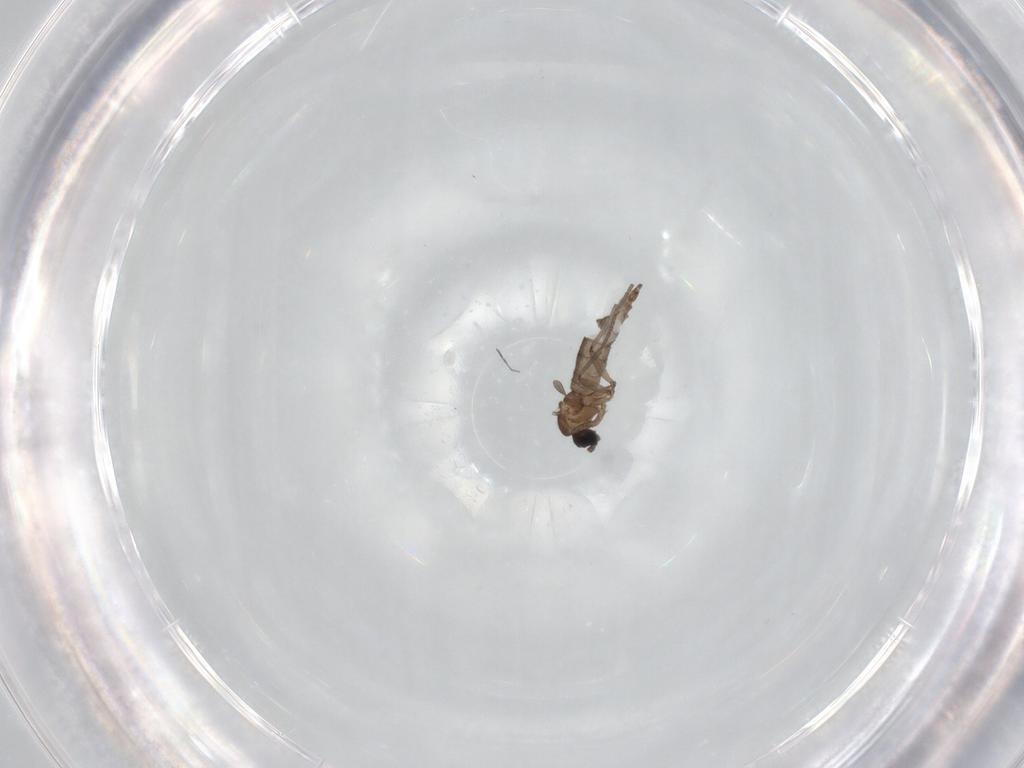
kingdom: Animalia
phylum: Arthropoda
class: Insecta
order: Diptera
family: Sciaridae
